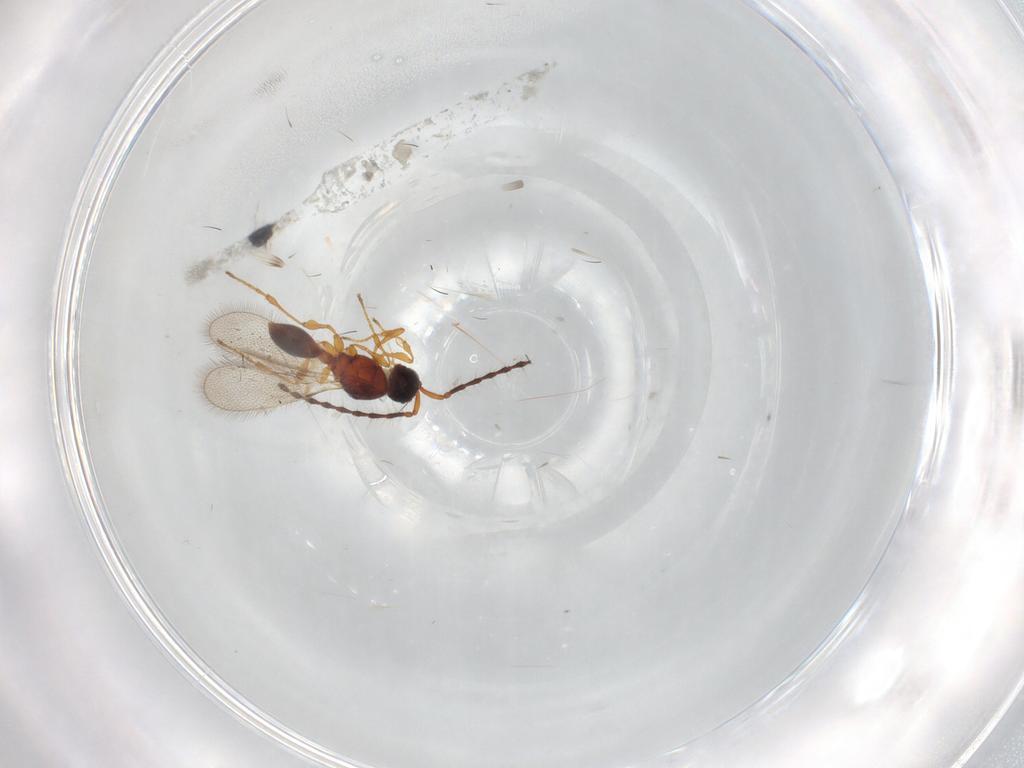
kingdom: Animalia
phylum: Arthropoda
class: Insecta
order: Hymenoptera
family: Diapriidae
